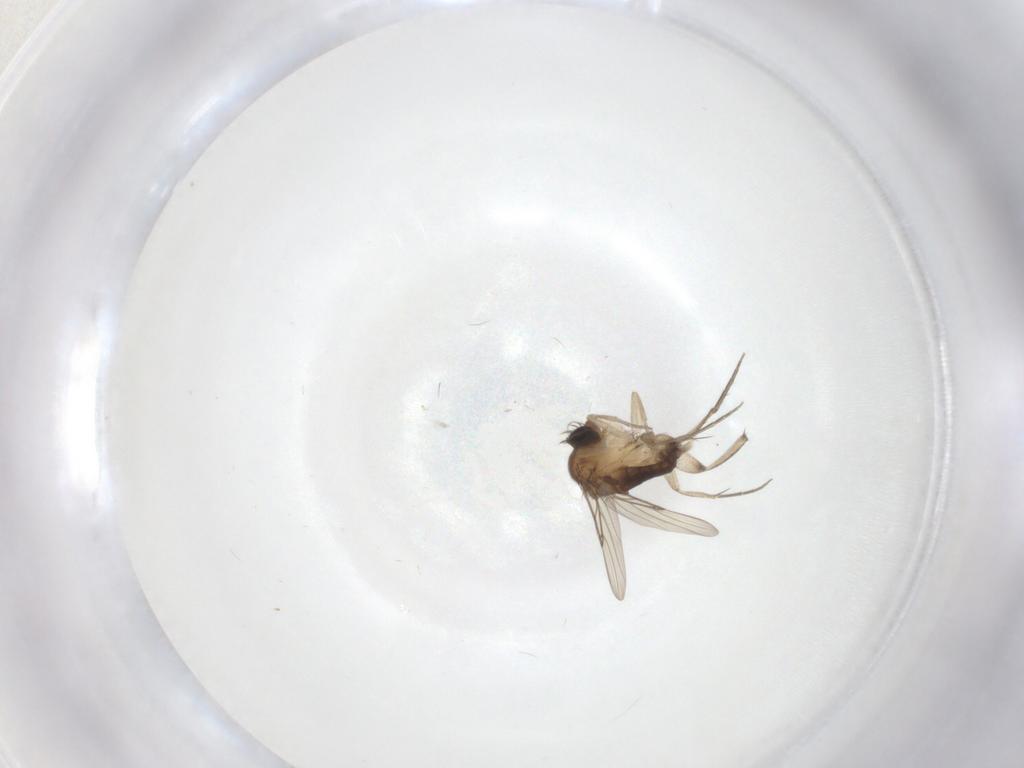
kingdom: Animalia
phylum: Arthropoda
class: Insecta
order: Diptera
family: Phoridae
